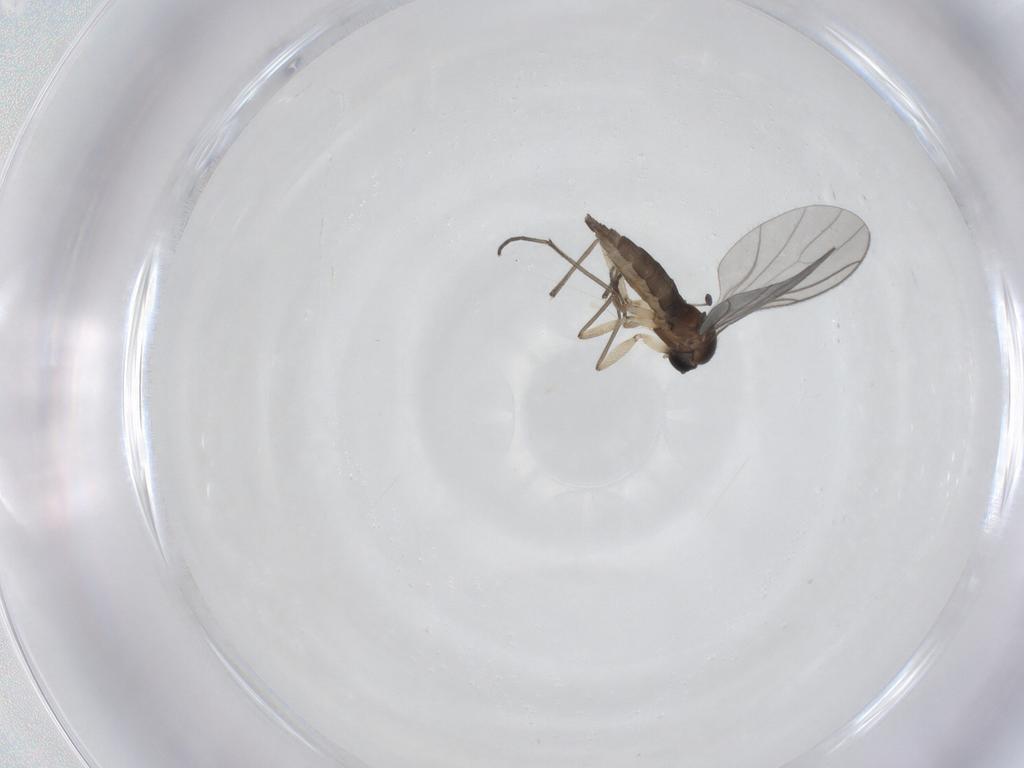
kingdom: Animalia
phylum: Arthropoda
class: Insecta
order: Diptera
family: Sciaridae
